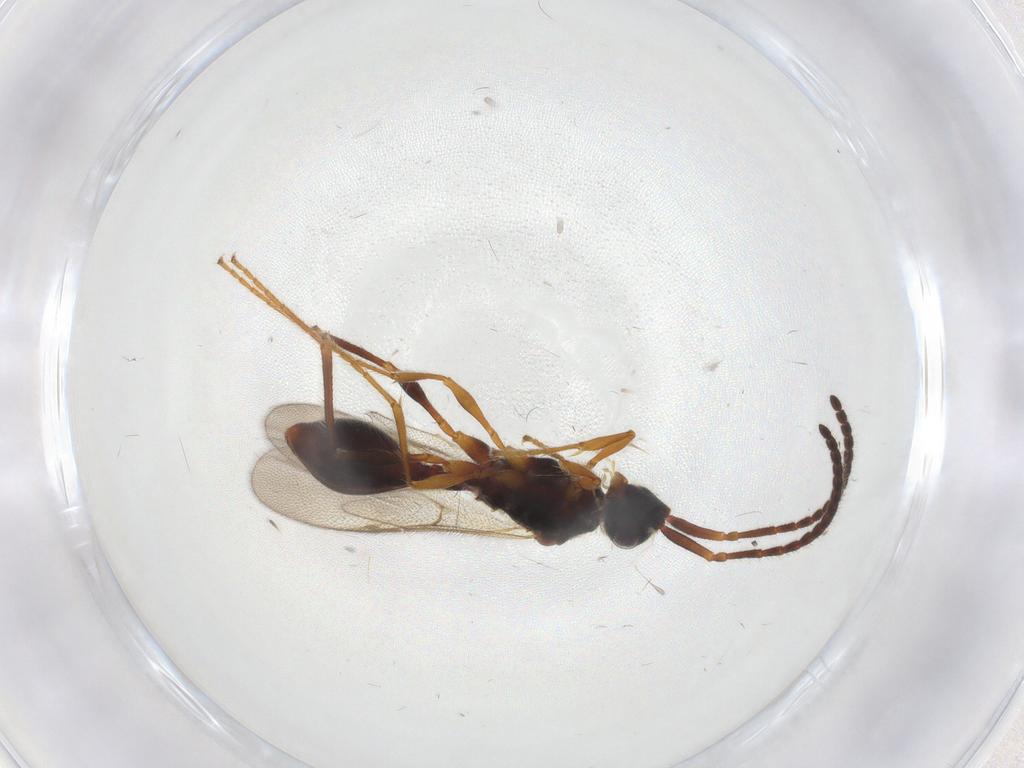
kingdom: Animalia
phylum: Arthropoda
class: Insecta
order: Hymenoptera
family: Diapriidae
